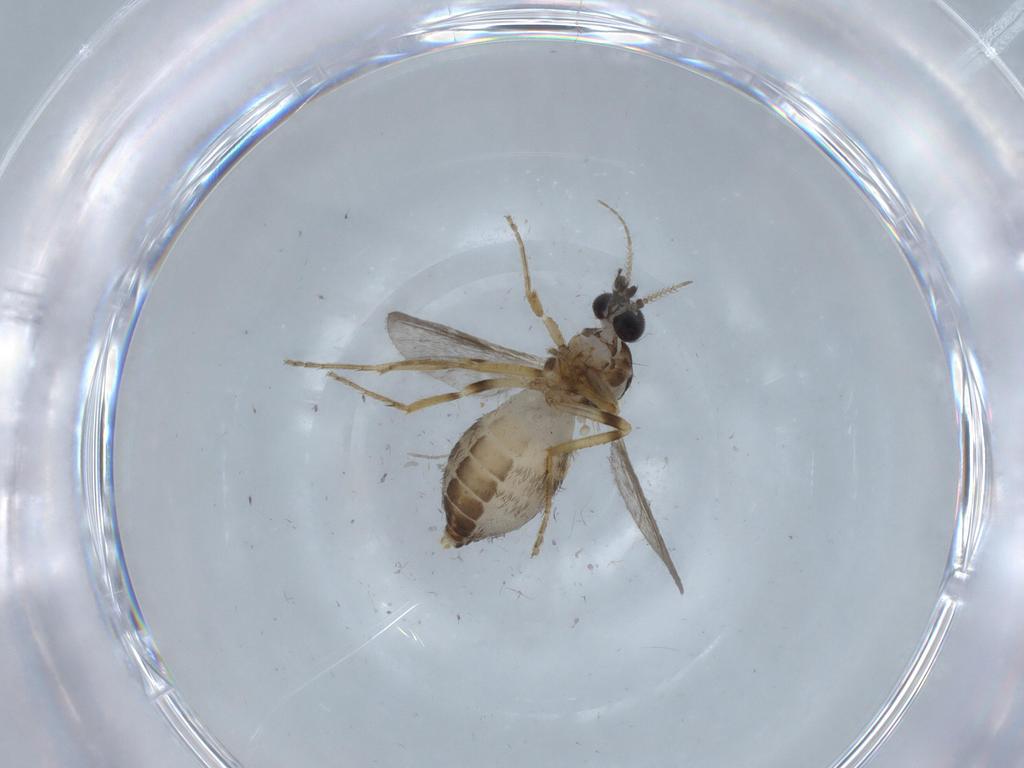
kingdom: Animalia
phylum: Arthropoda
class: Insecta
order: Diptera
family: Ceratopogonidae
